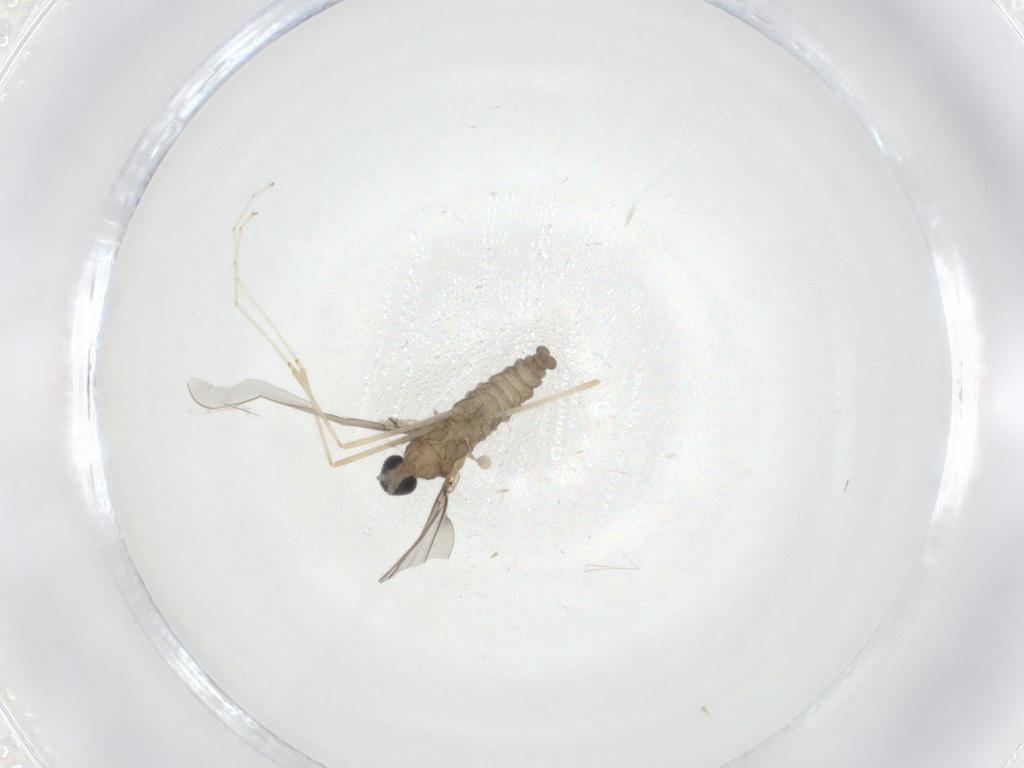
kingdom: Animalia
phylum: Arthropoda
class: Insecta
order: Diptera
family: Cecidomyiidae
